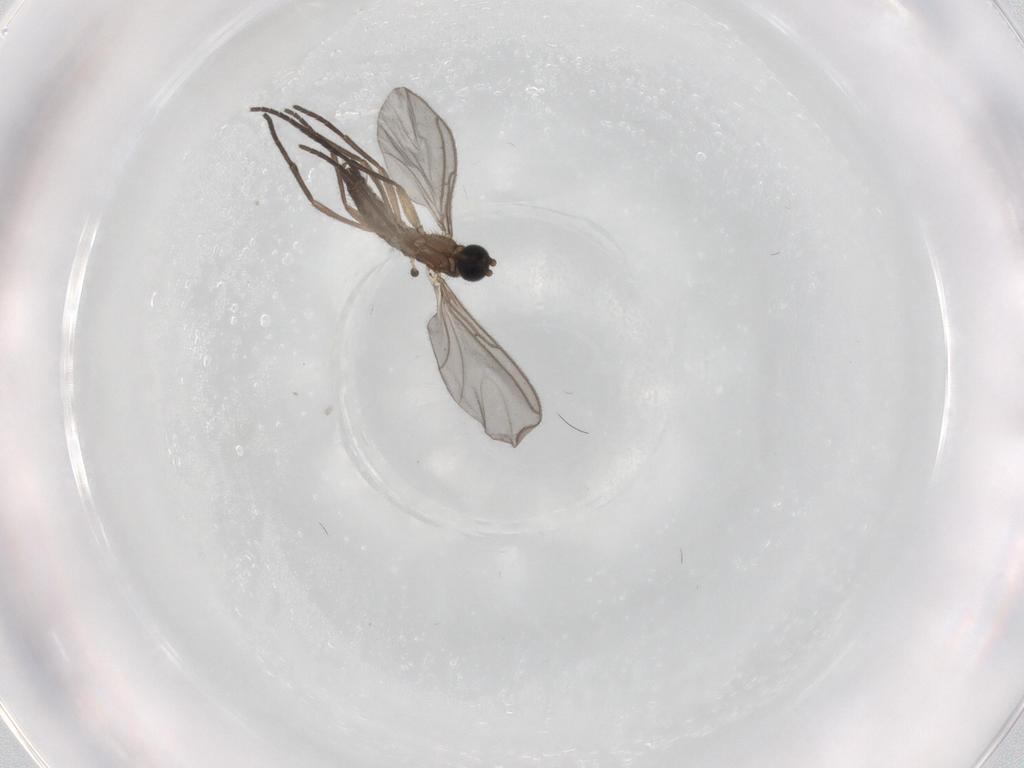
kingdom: Animalia
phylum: Arthropoda
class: Insecta
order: Diptera
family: Sciaridae
